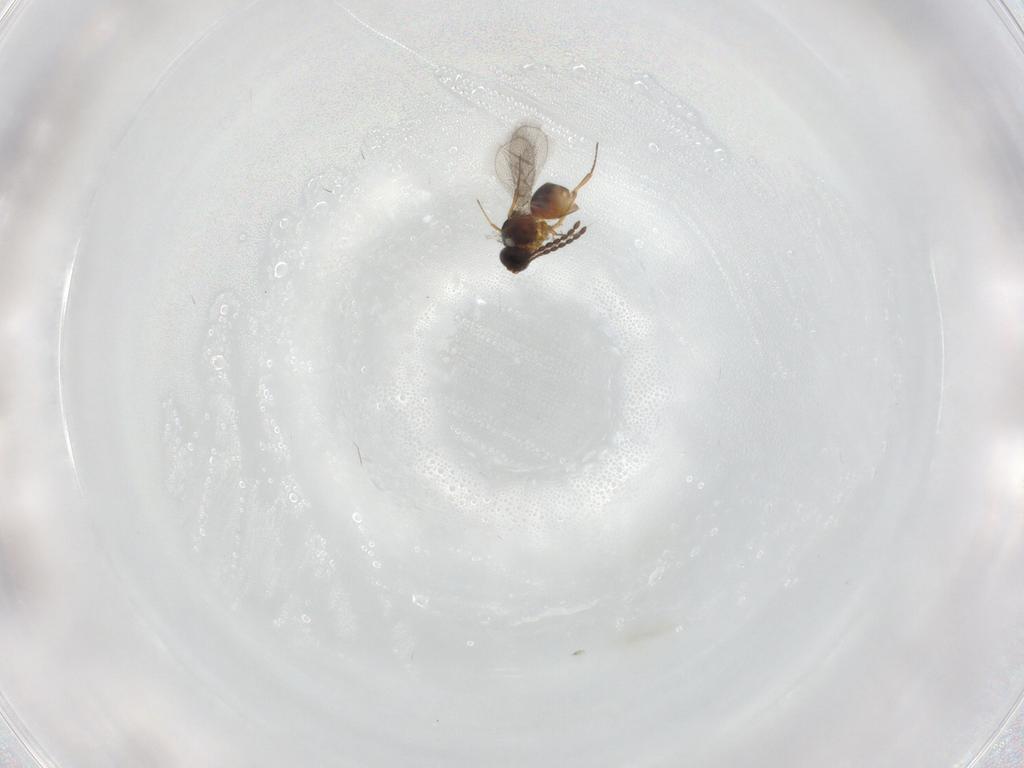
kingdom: Animalia
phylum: Arthropoda
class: Insecta
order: Hymenoptera
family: Figitidae
